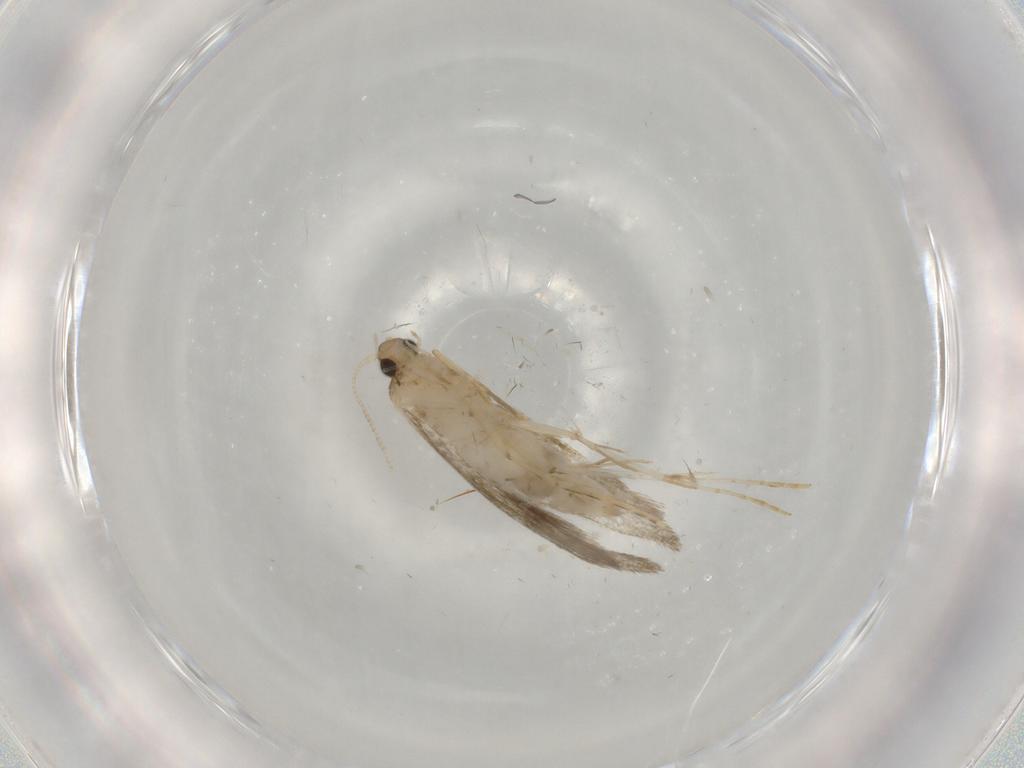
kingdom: Animalia
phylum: Arthropoda
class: Insecta
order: Lepidoptera
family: Tineidae
